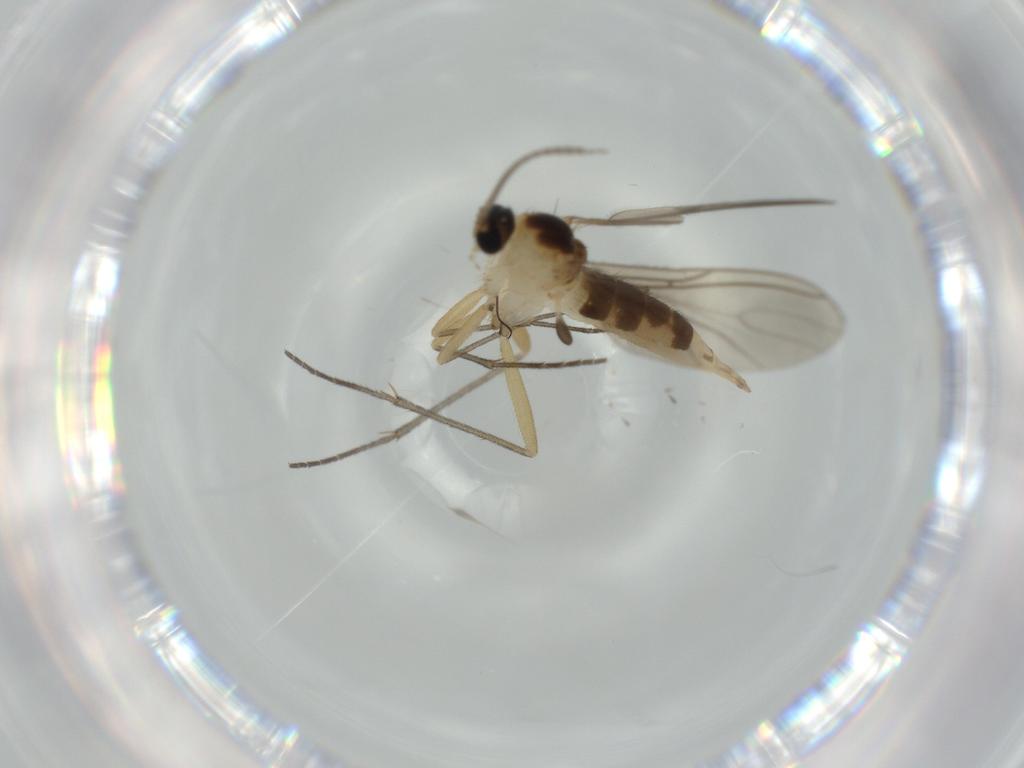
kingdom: Animalia
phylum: Arthropoda
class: Insecta
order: Diptera
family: Sciaridae
